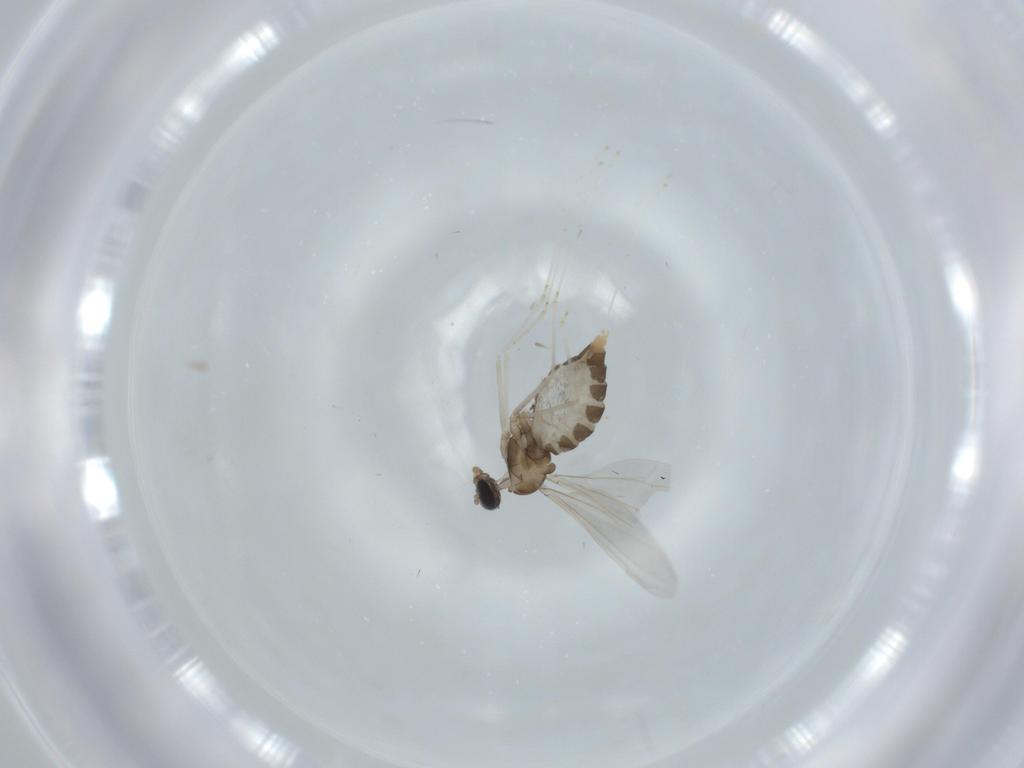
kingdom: Animalia
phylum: Arthropoda
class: Insecta
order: Diptera
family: Cecidomyiidae
